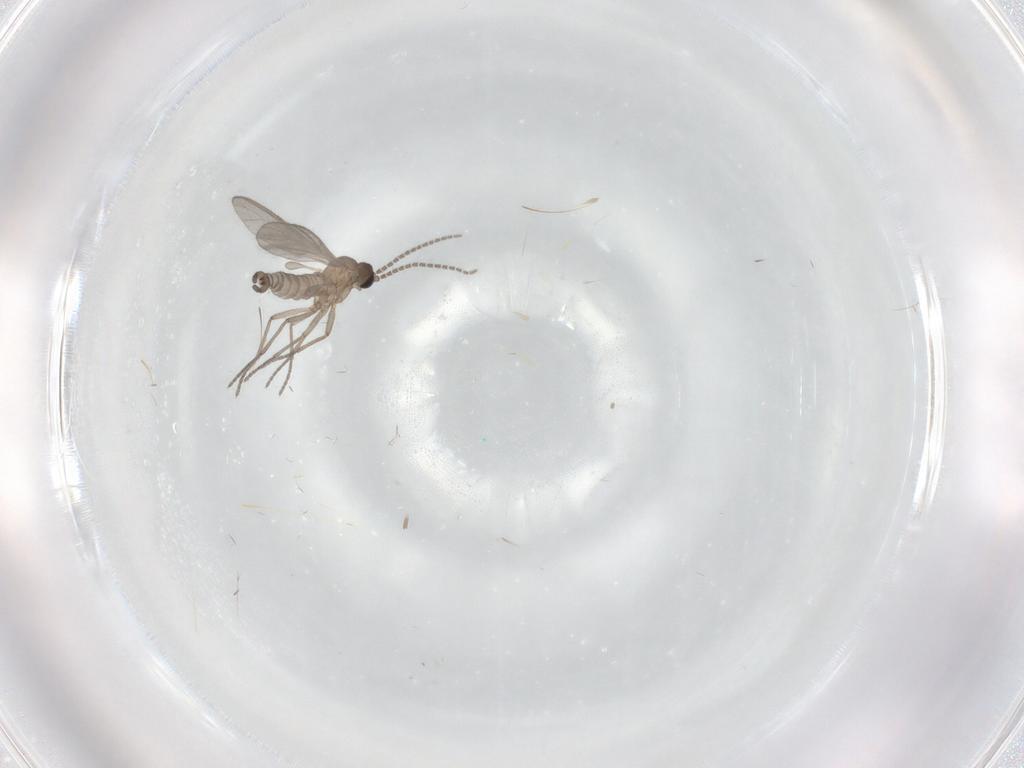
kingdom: Animalia
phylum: Arthropoda
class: Insecta
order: Diptera
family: Sciaridae
